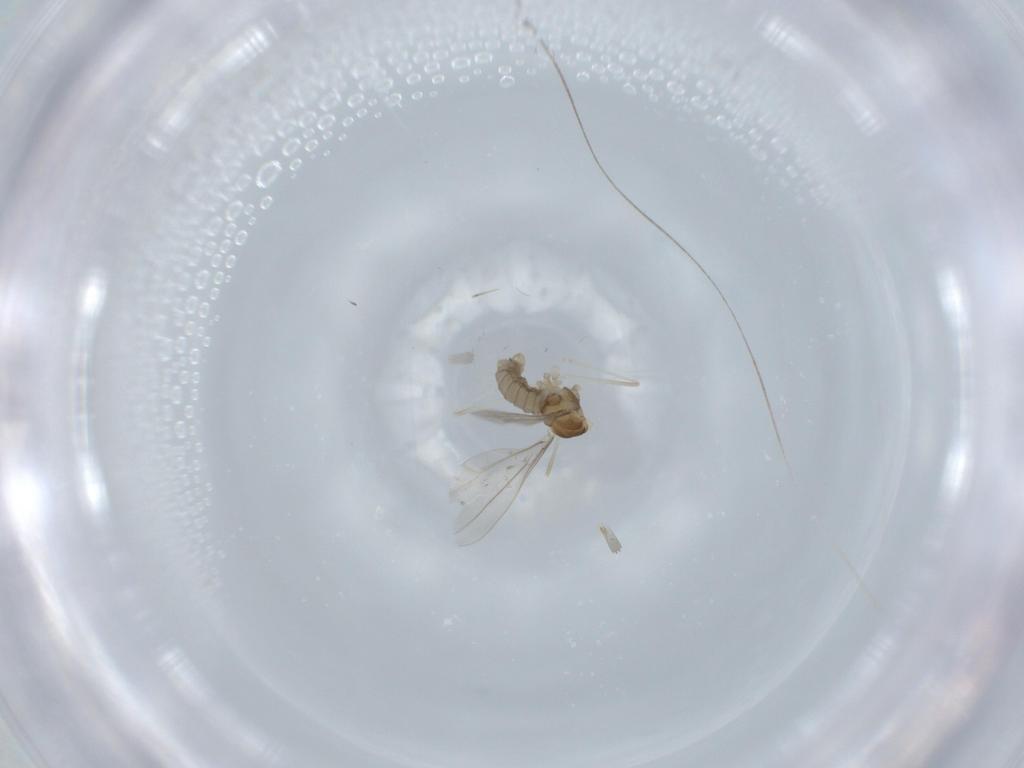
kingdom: Animalia
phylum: Arthropoda
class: Insecta
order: Diptera
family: Cecidomyiidae
